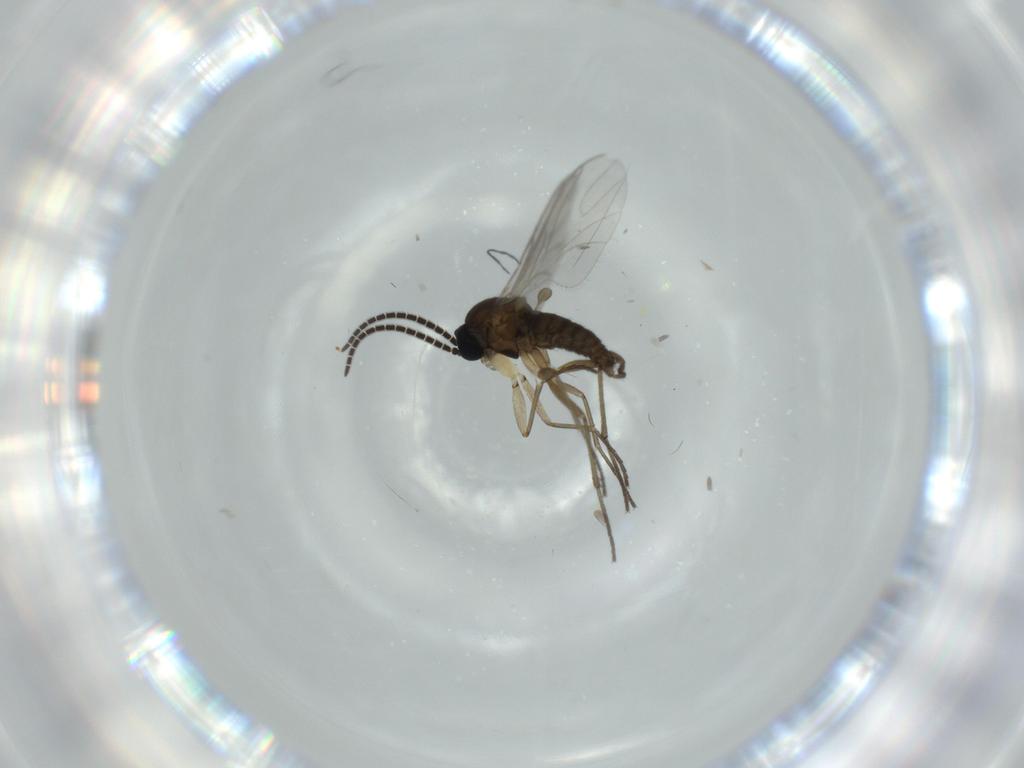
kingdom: Animalia
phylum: Arthropoda
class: Insecta
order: Diptera
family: Sciaridae
